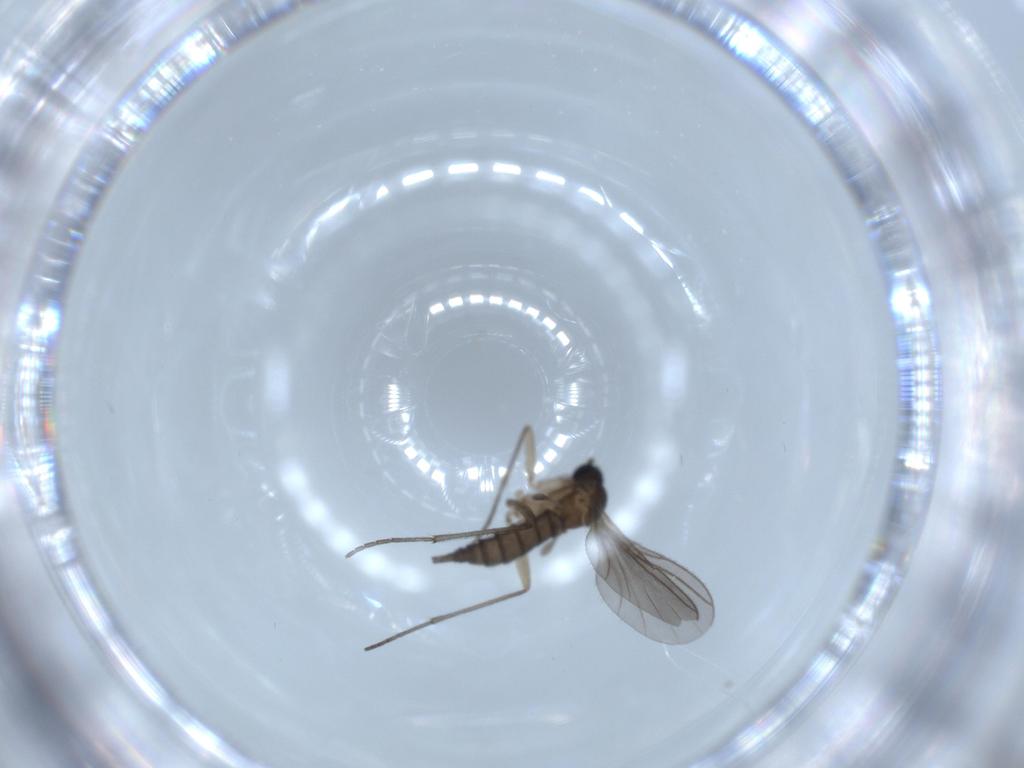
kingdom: Animalia
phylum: Arthropoda
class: Insecta
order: Diptera
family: Sciaridae
